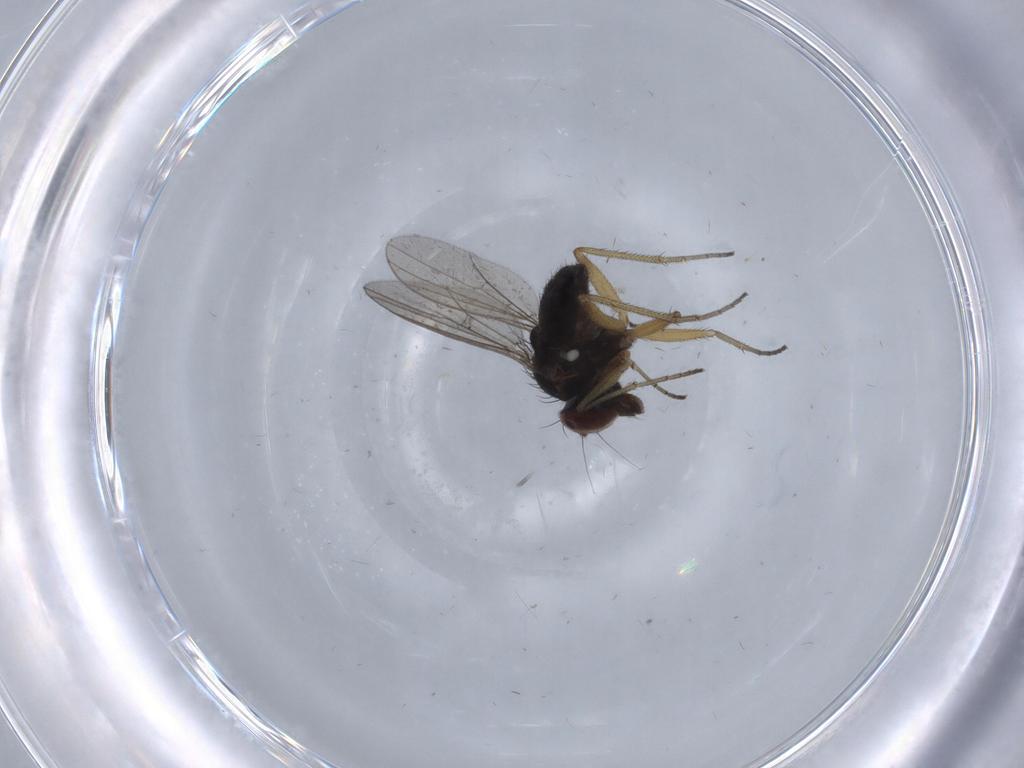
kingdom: Animalia
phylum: Arthropoda
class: Insecta
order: Diptera
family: Dolichopodidae
